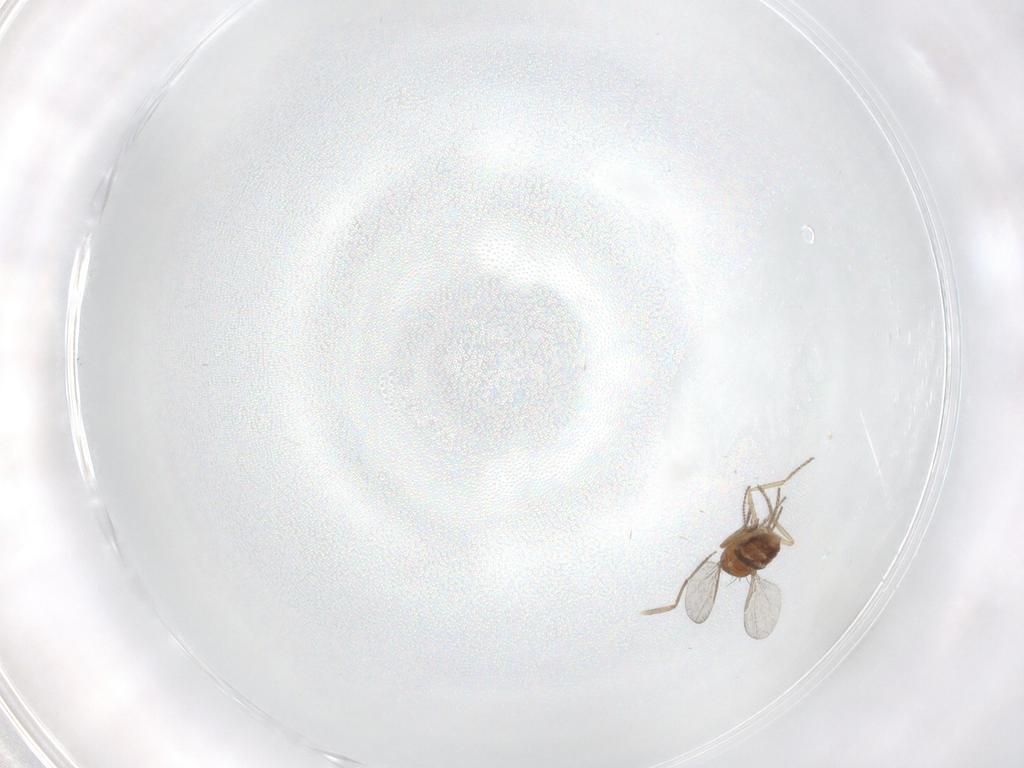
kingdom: Animalia
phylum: Arthropoda
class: Insecta
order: Diptera
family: Ceratopogonidae
